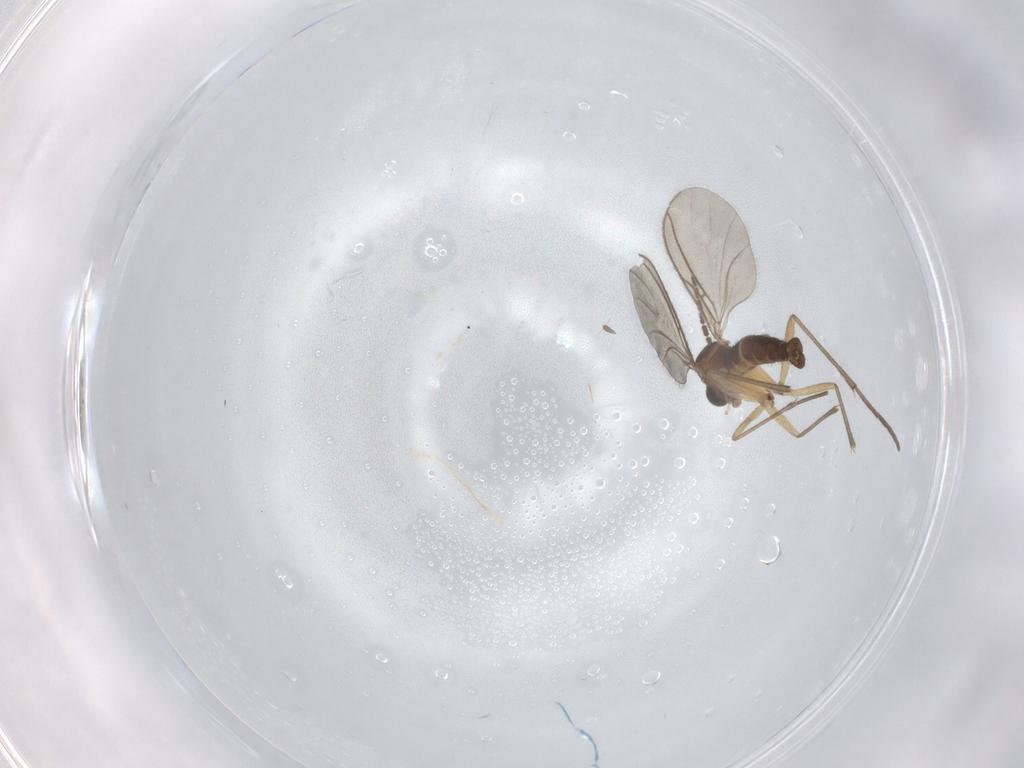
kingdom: Animalia
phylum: Arthropoda
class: Insecta
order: Diptera
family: Sciaridae
